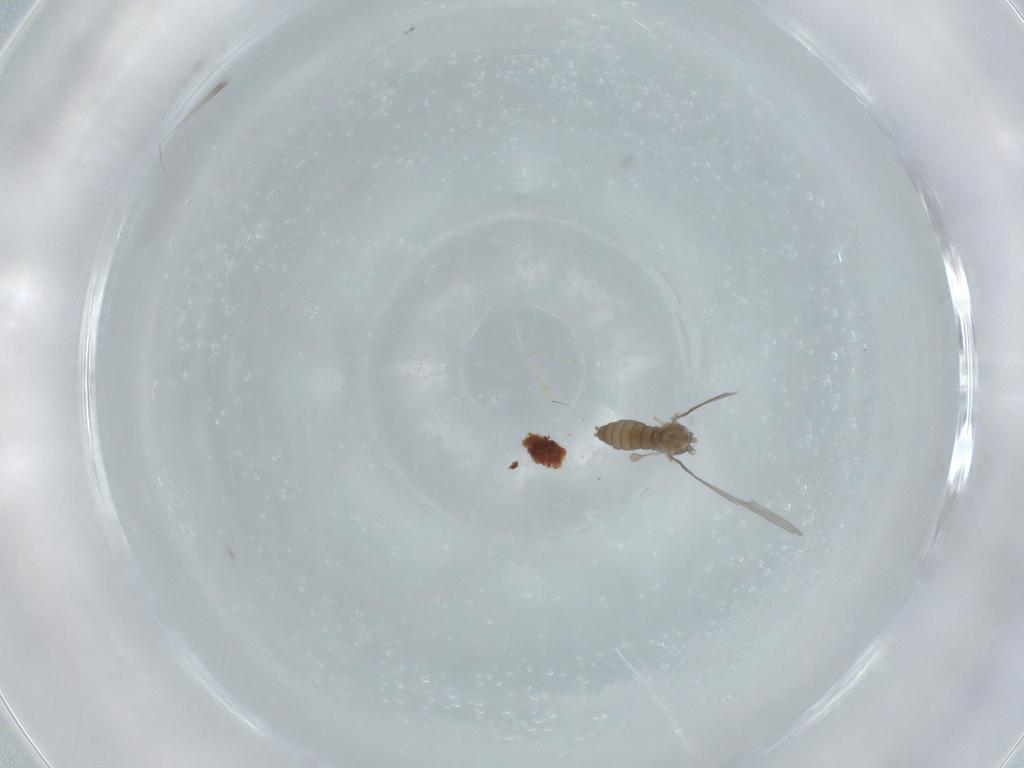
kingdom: Animalia
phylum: Arthropoda
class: Insecta
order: Diptera
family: Cecidomyiidae
